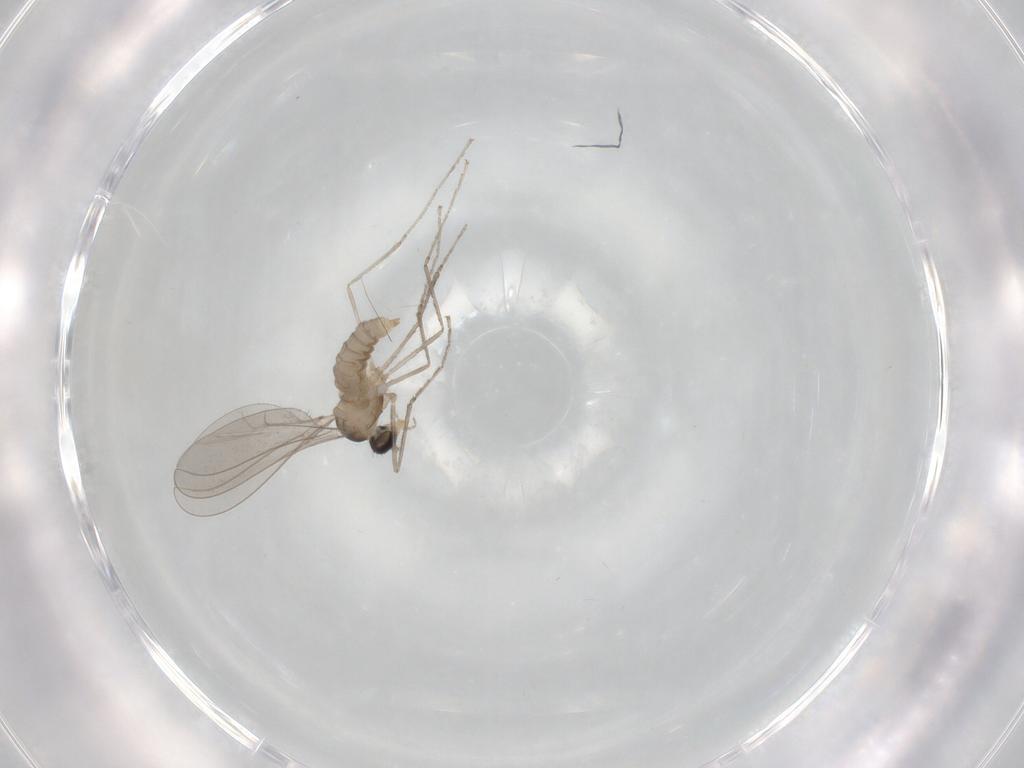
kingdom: Animalia
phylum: Arthropoda
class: Insecta
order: Diptera
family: Cecidomyiidae
